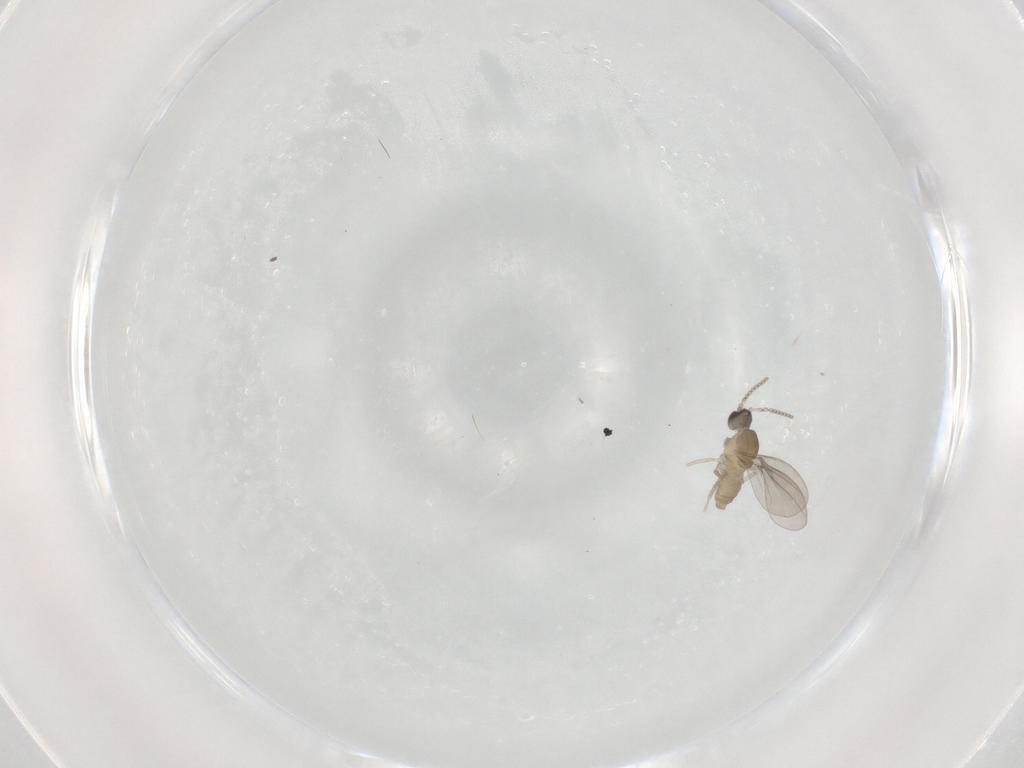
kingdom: Animalia
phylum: Arthropoda
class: Insecta
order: Diptera
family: Cecidomyiidae
